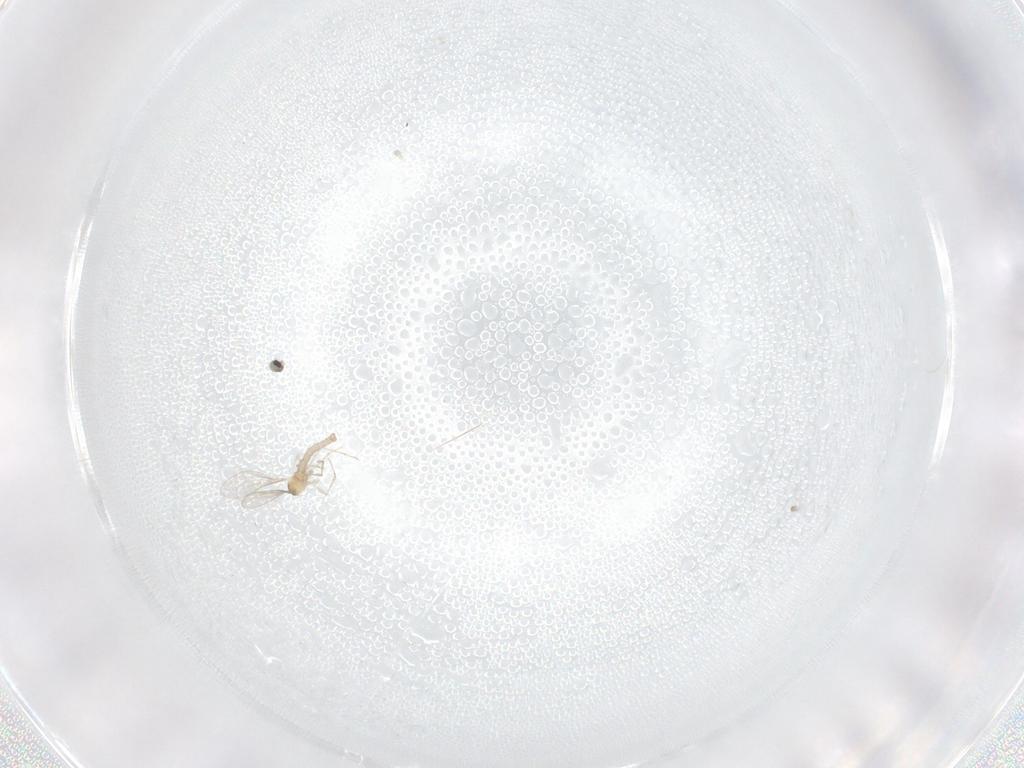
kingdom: Animalia
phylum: Arthropoda
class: Insecta
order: Diptera
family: Cecidomyiidae
